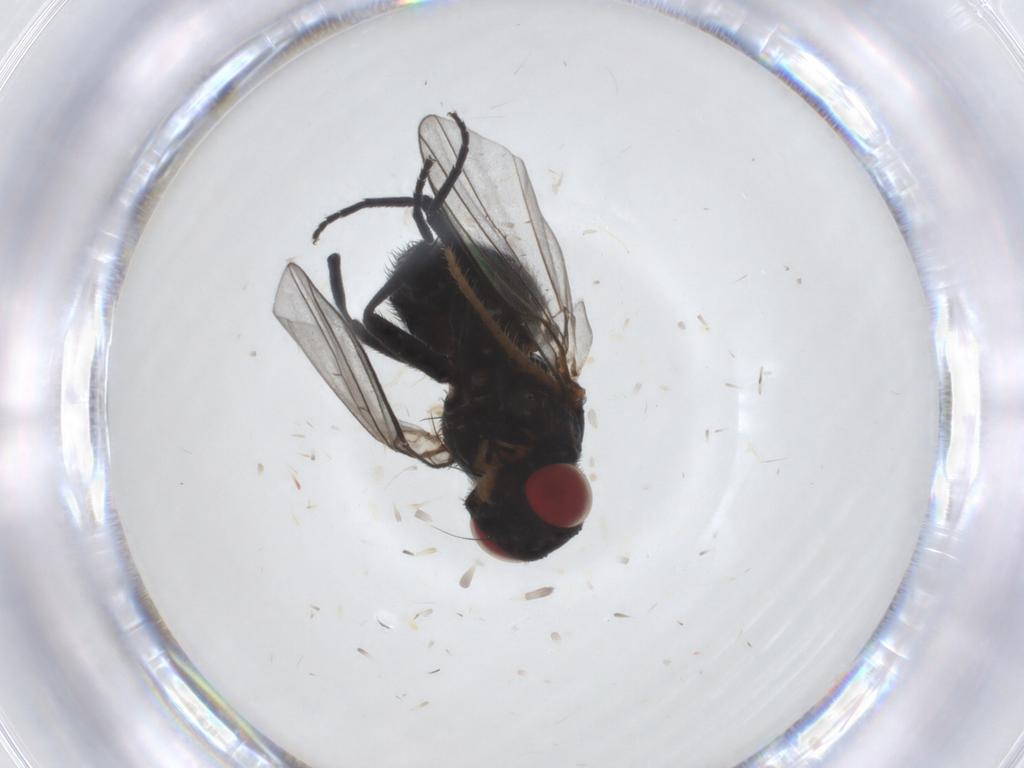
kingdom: Animalia
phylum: Arthropoda
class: Insecta
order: Diptera
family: Agromyzidae
